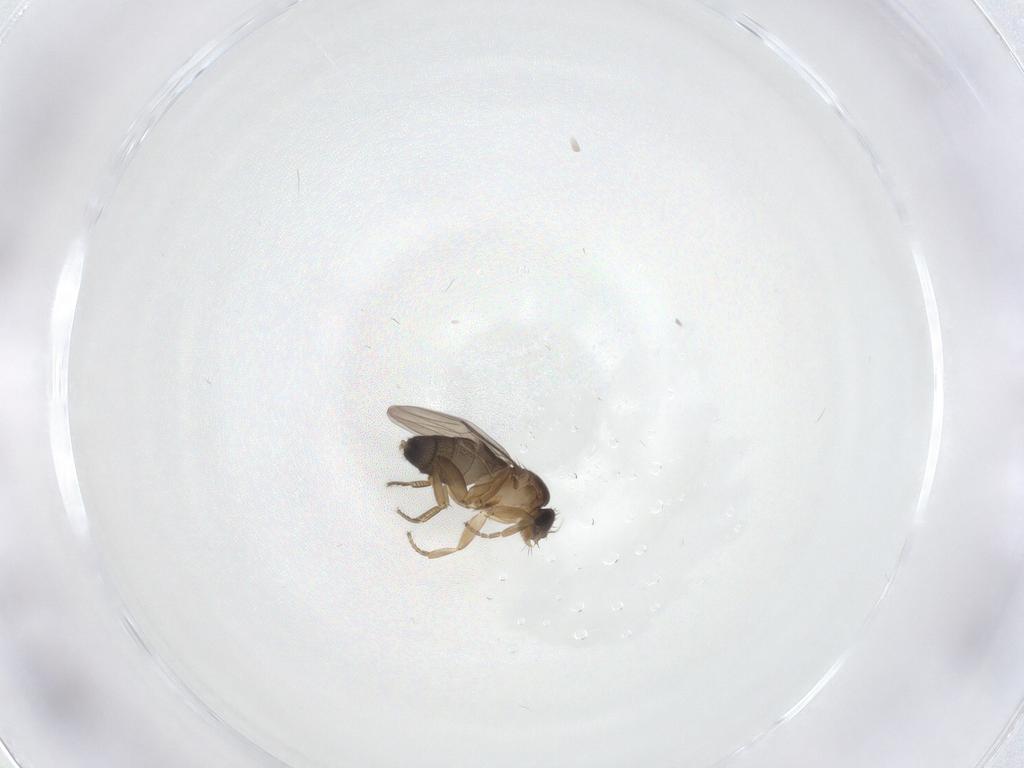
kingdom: Animalia
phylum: Arthropoda
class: Insecta
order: Diptera
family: Phoridae
